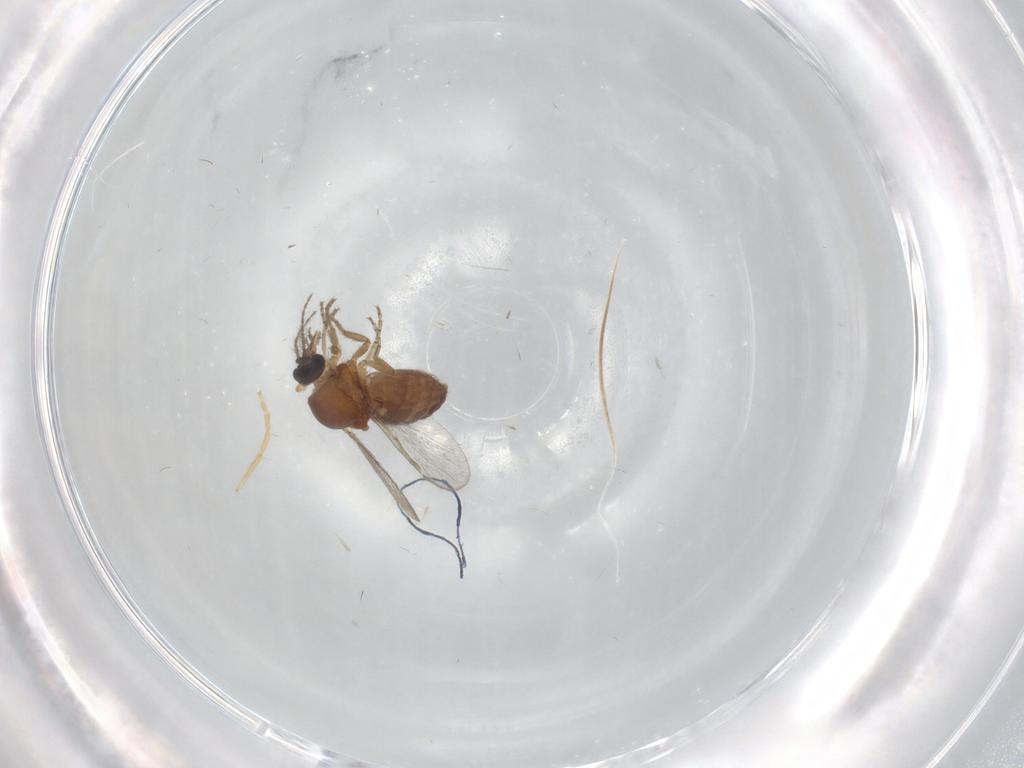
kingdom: Animalia
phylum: Arthropoda
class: Insecta
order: Diptera
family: Ceratopogonidae
